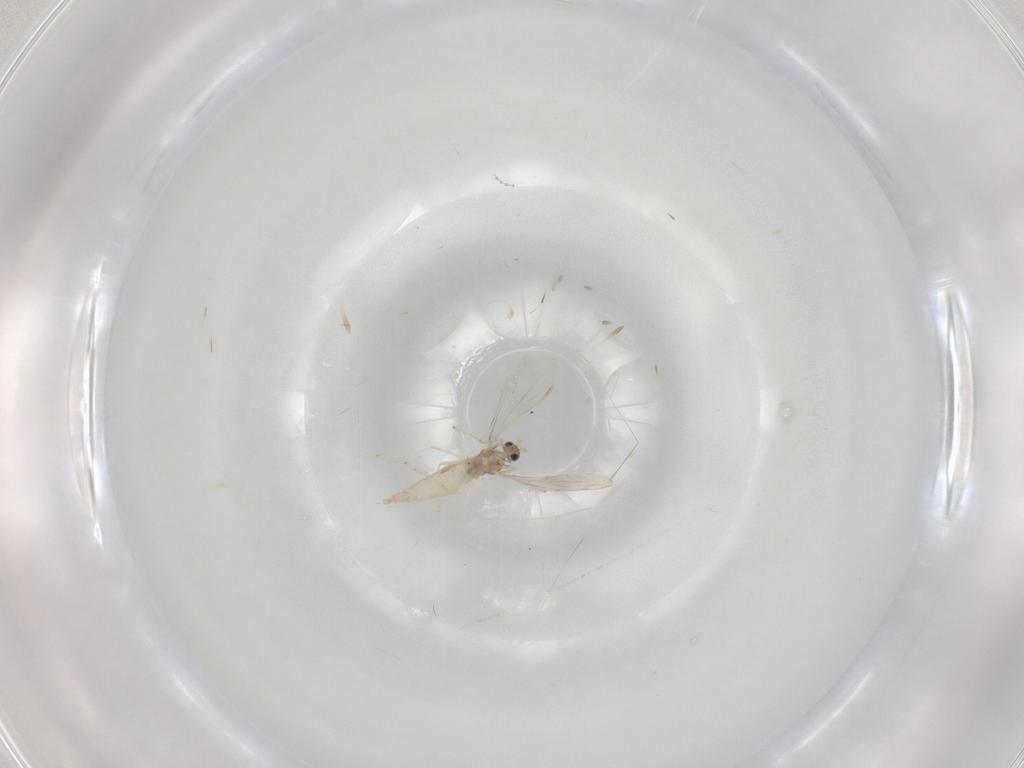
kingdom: Animalia
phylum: Arthropoda
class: Insecta
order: Diptera
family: Cecidomyiidae
